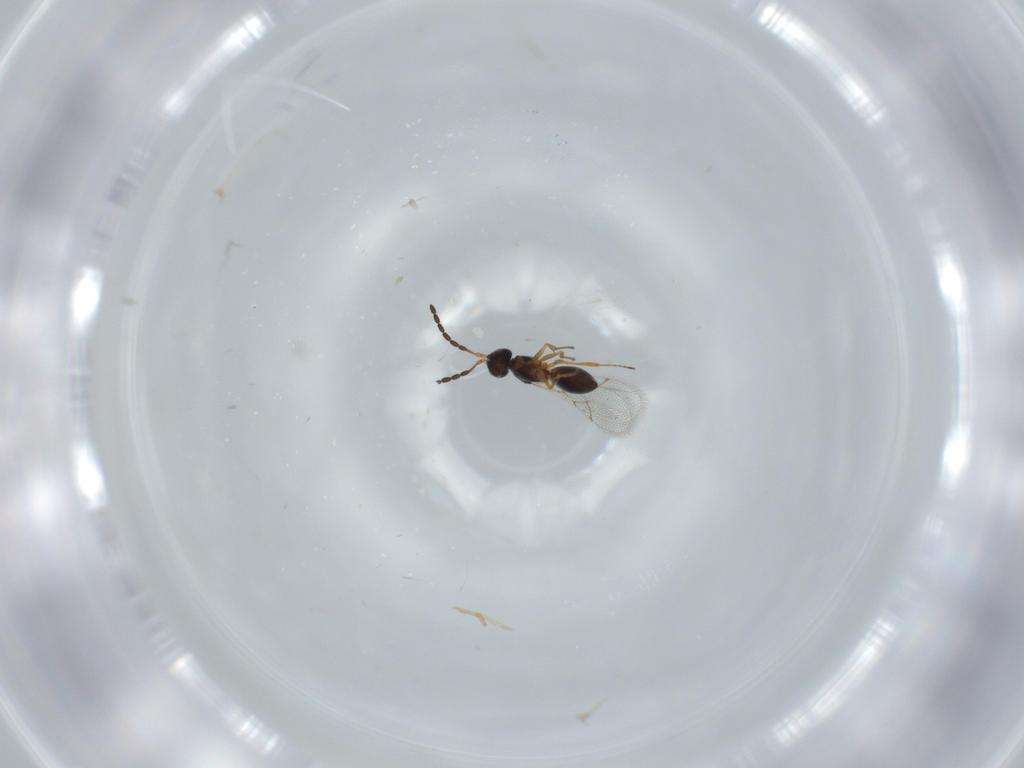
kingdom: Animalia
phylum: Arthropoda
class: Insecta
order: Hymenoptera
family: Figitidae
